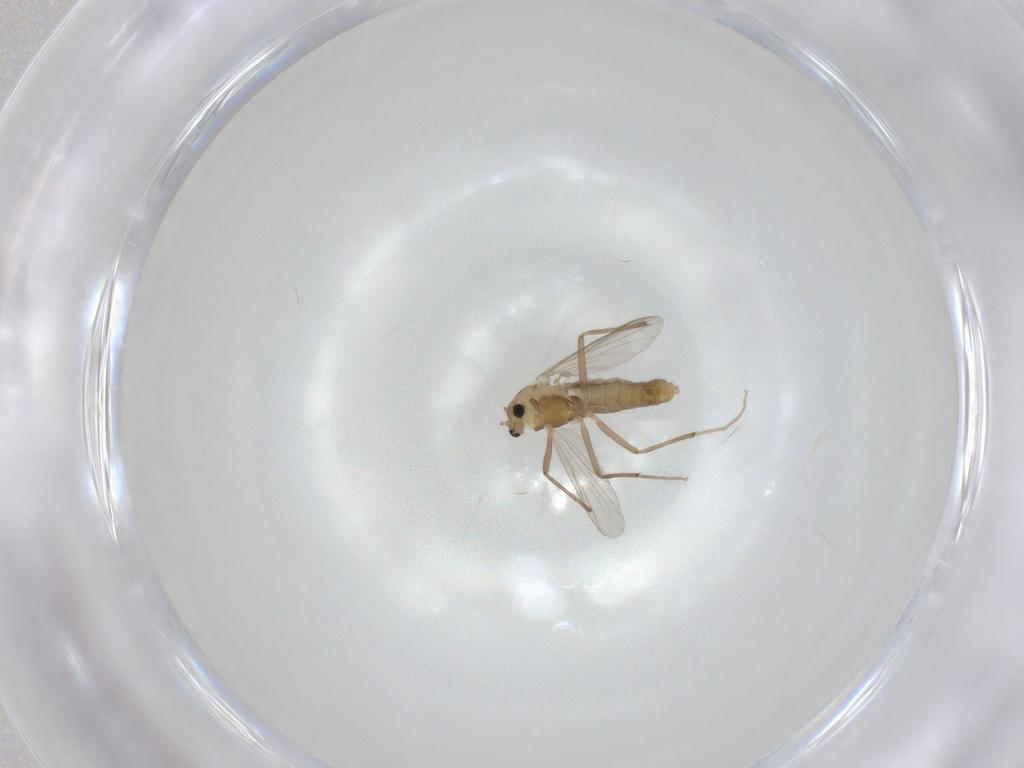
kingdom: Animalia
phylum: Arthropoda
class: Insecta
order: Diptera
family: Chironomidae
